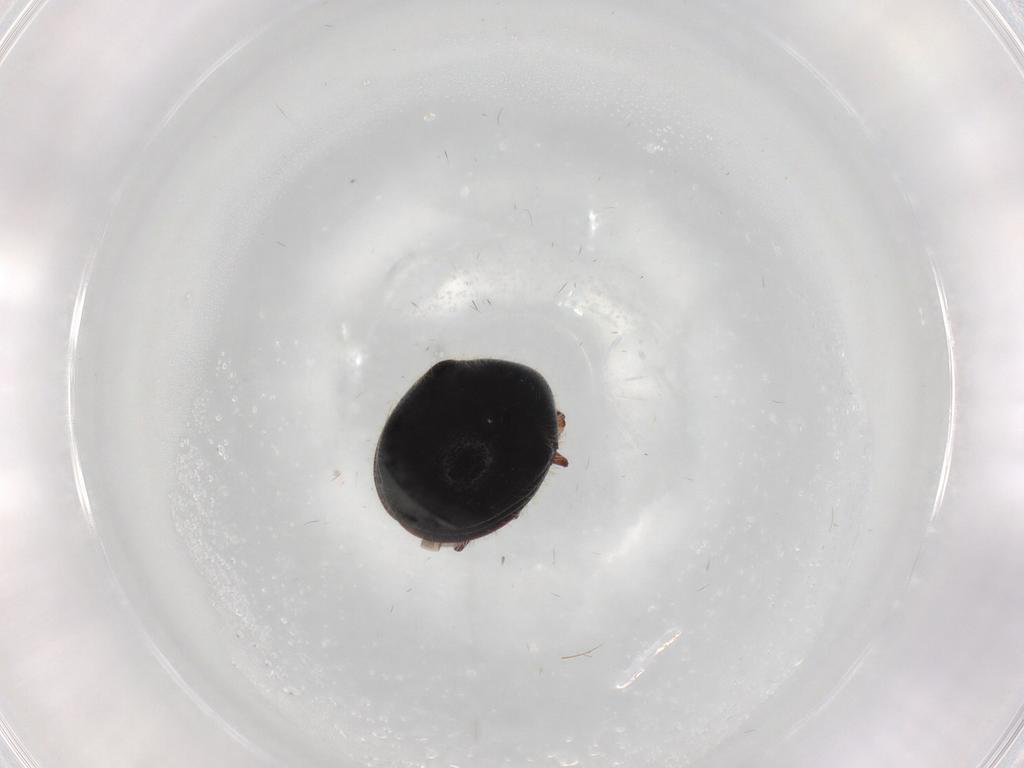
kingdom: Animalia
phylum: Arthropoda
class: Insecta
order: Coleoptera
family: Ptinidae
